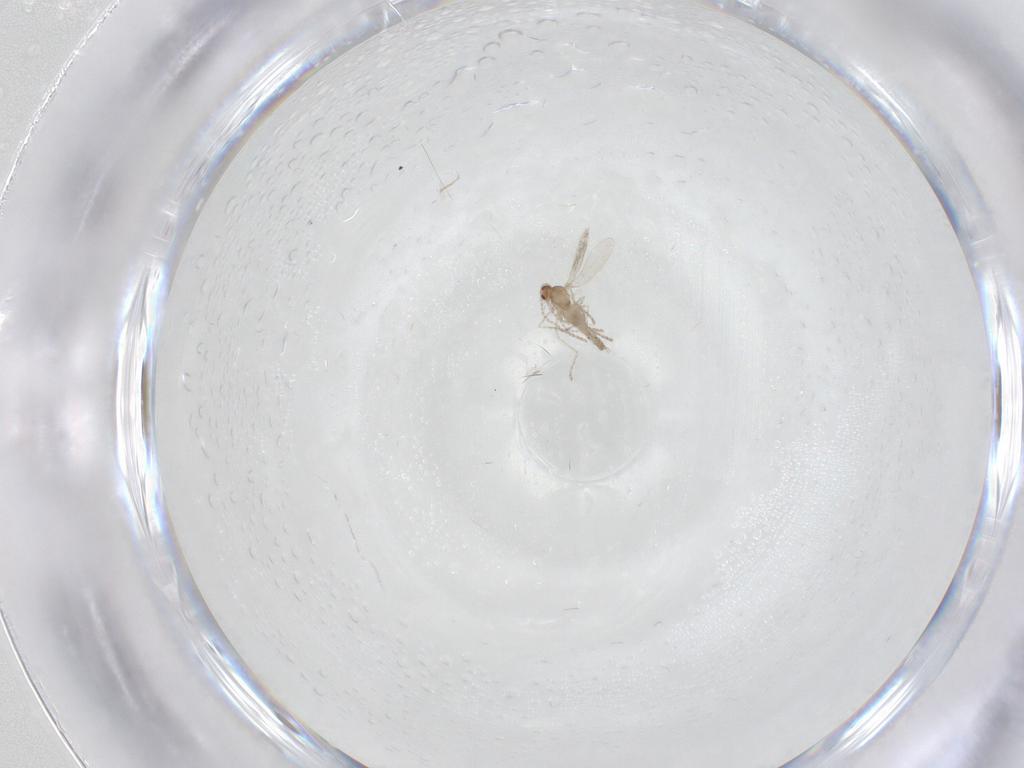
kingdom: Animalia
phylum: Arthropoda
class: Insecta
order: Diptera
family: Cecidomyiidae
